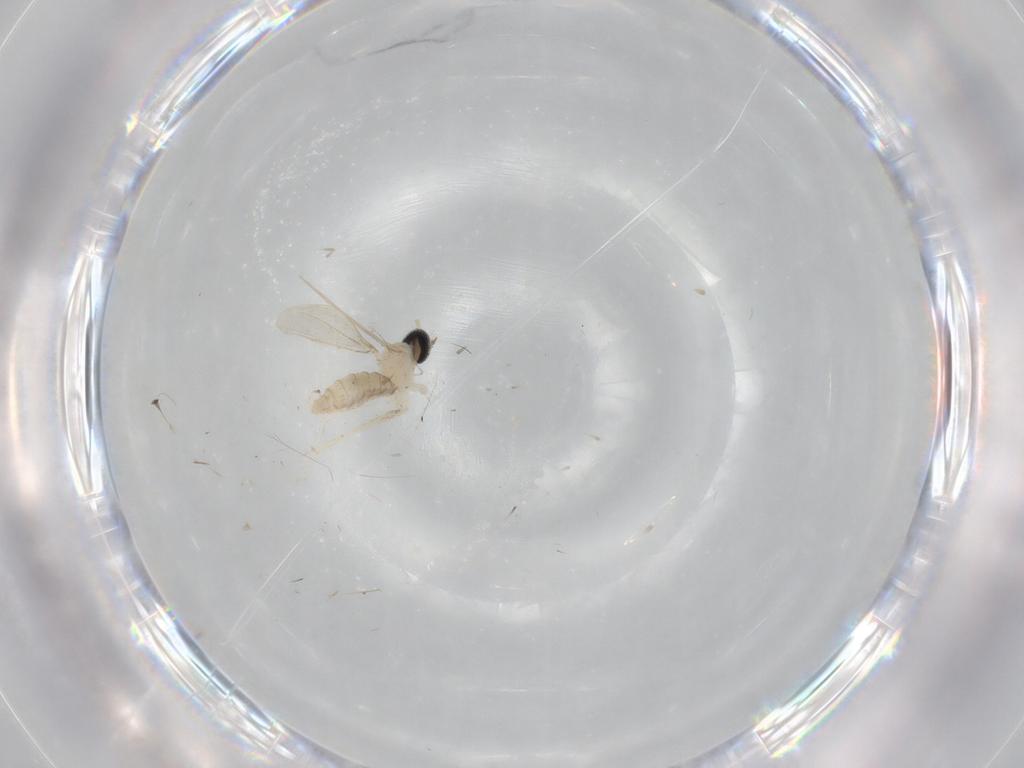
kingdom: Animalia
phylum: Arthropoda
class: Insecta
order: Diptera
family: Cecidomyiidae
